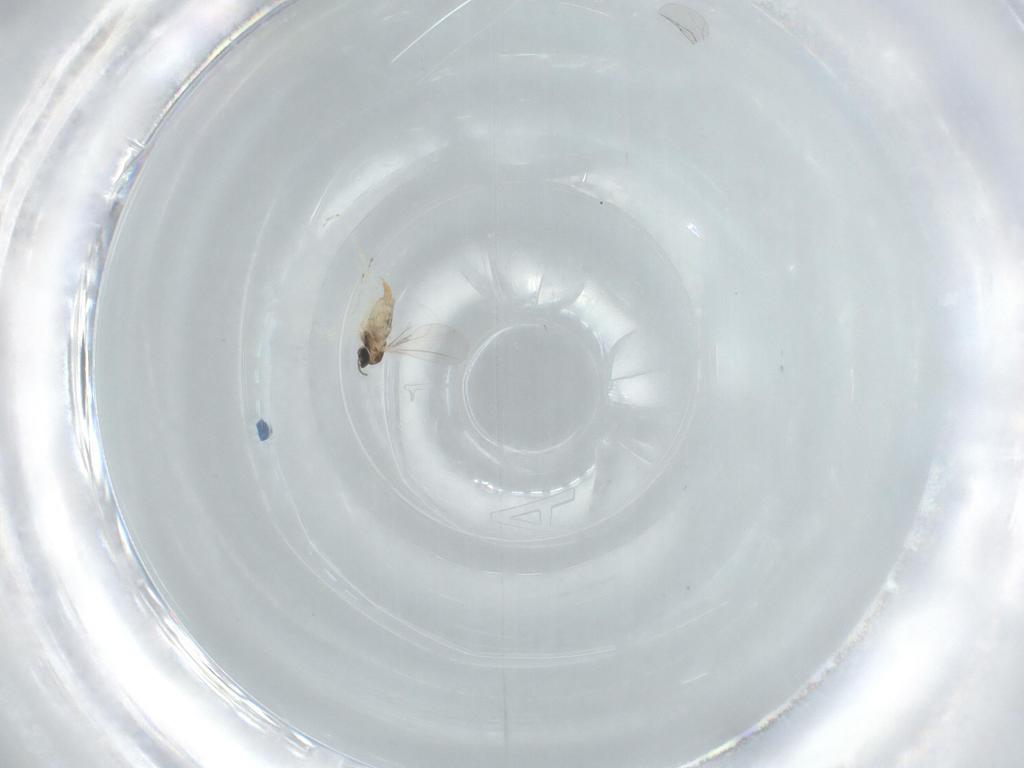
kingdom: Animalia
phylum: Arthropoda
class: Insecta
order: Diptera
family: Cecidomyiidae
